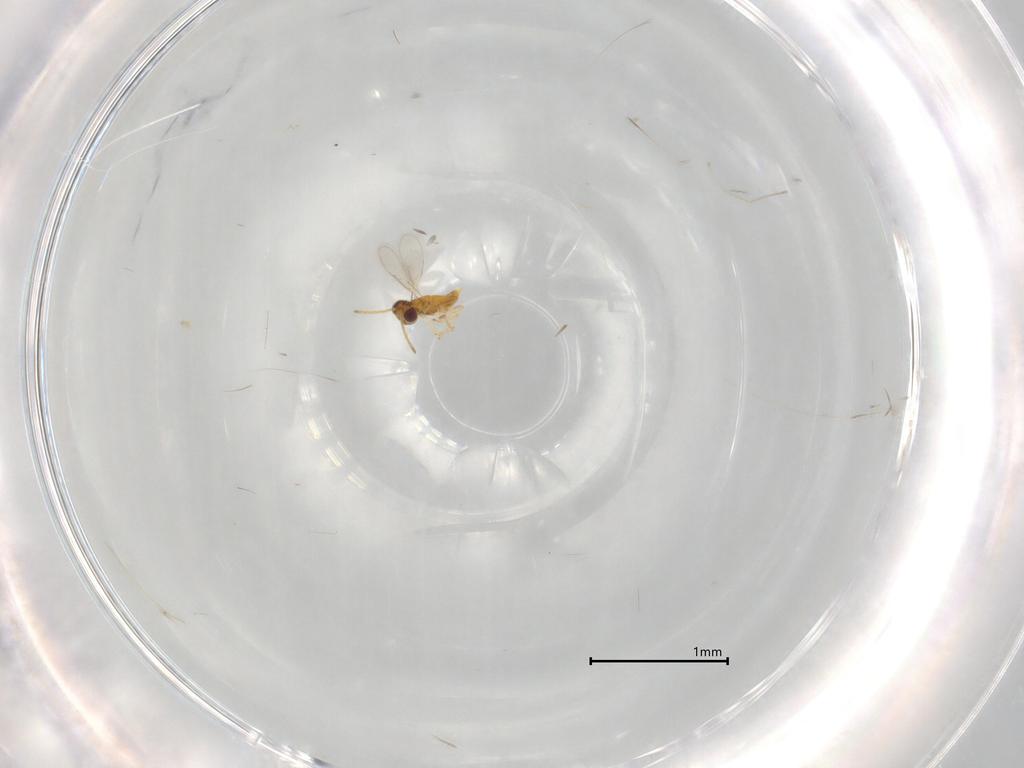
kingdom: Animalia
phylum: Arthropoda
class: Insecta
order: Hymenoptera
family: Aphelinidae
